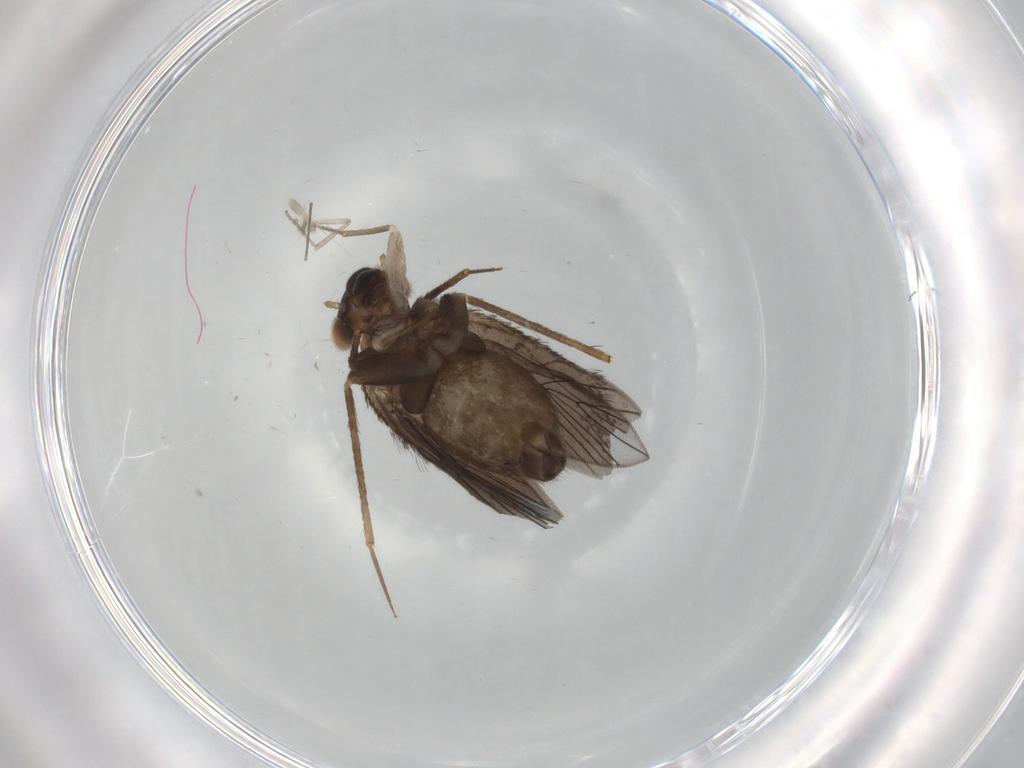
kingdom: Animalia
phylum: Arthropoda
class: Insecta
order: Psocodea
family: Lepidopsocidae
